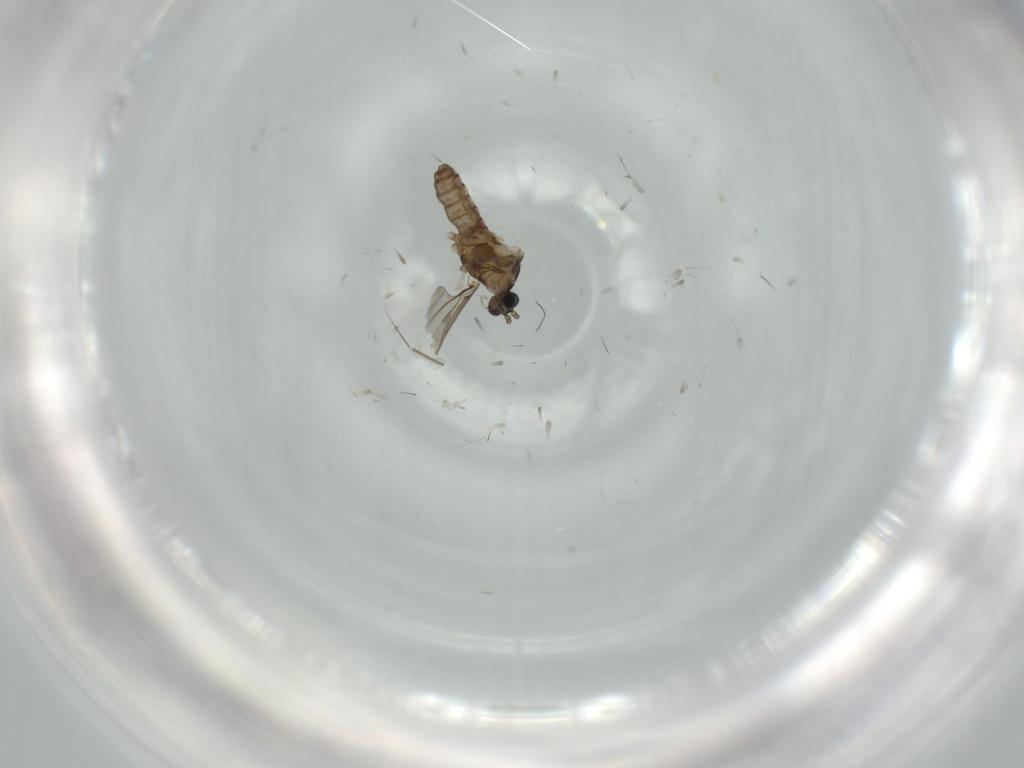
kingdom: Animalia
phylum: Arthropoda
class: Insecta
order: Diptera
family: Cecidomyiidae
